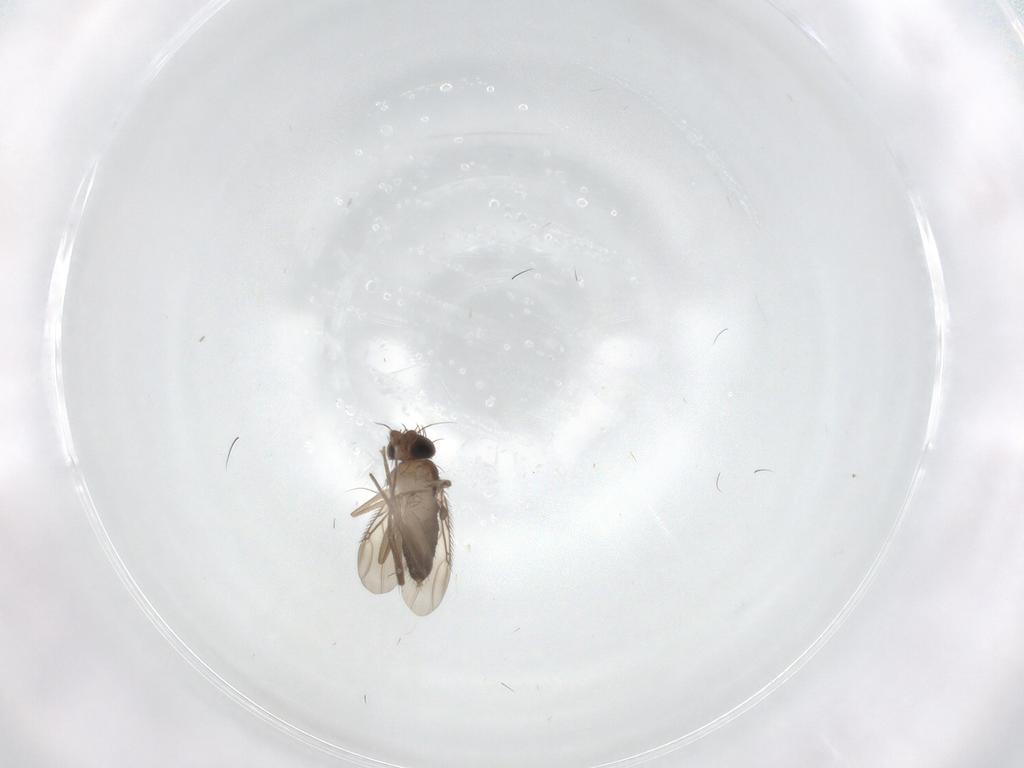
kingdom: Animalia
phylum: Arthropoda
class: Insecta
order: Diptera
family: Phoridae
